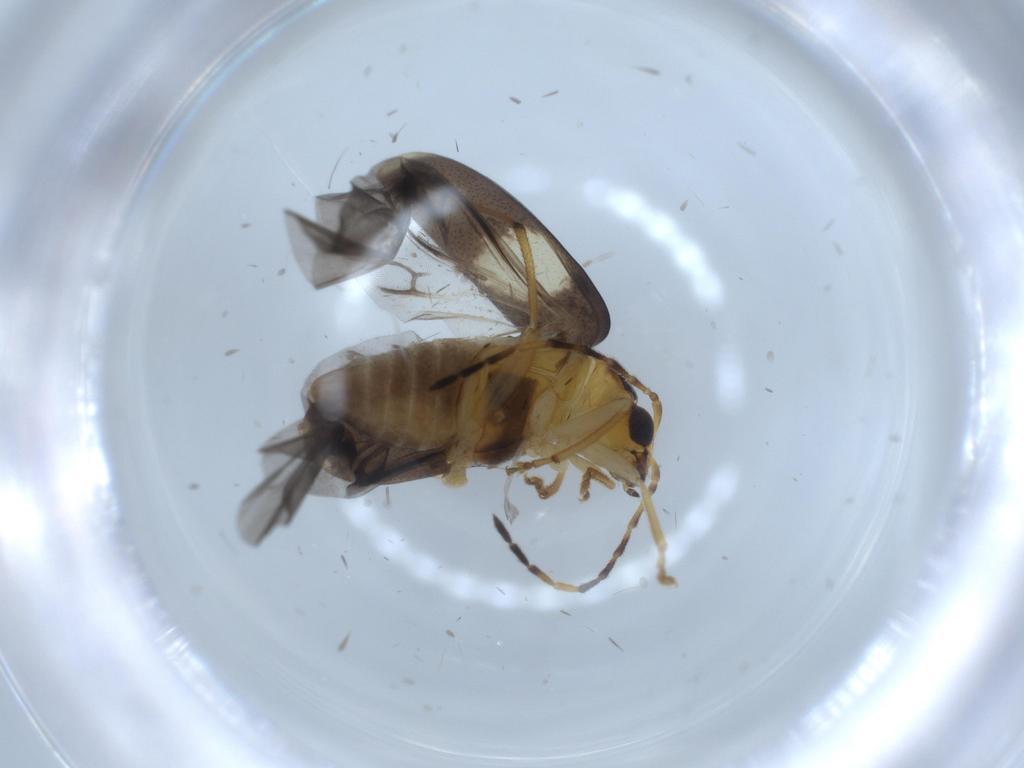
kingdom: Animalia
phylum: Arthropoda
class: Insecta
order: Coleoptera
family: Chrysomelidae
